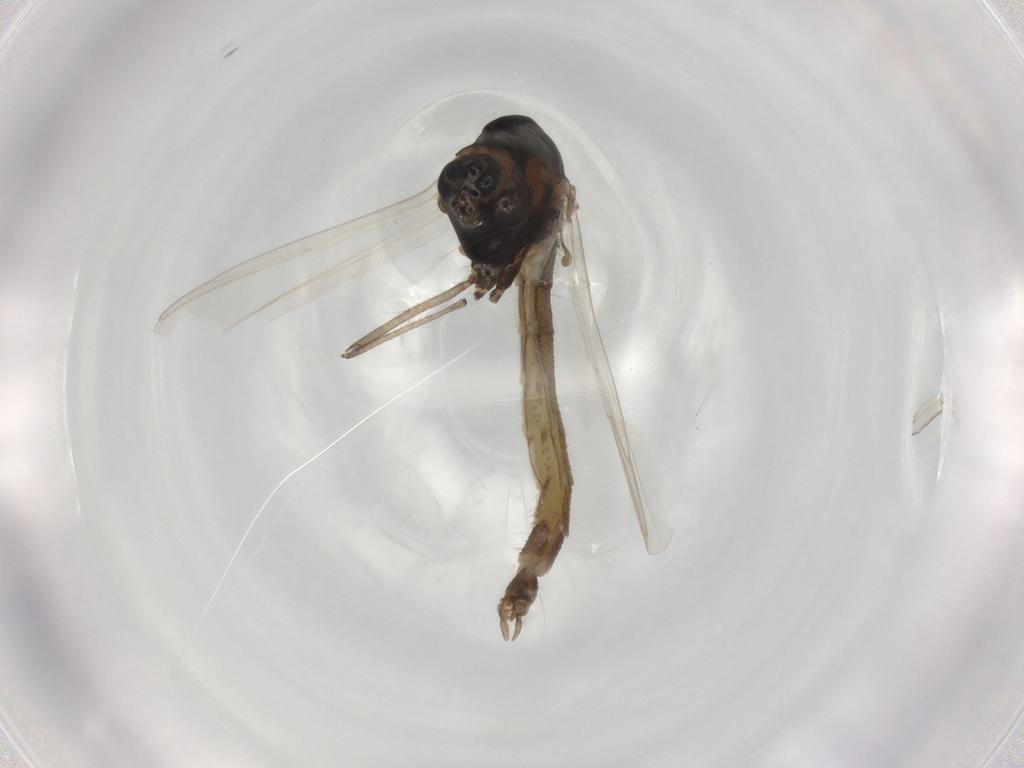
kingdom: Animalia
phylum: Arthropoda
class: Insecta
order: Diptera
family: Chironomidae
